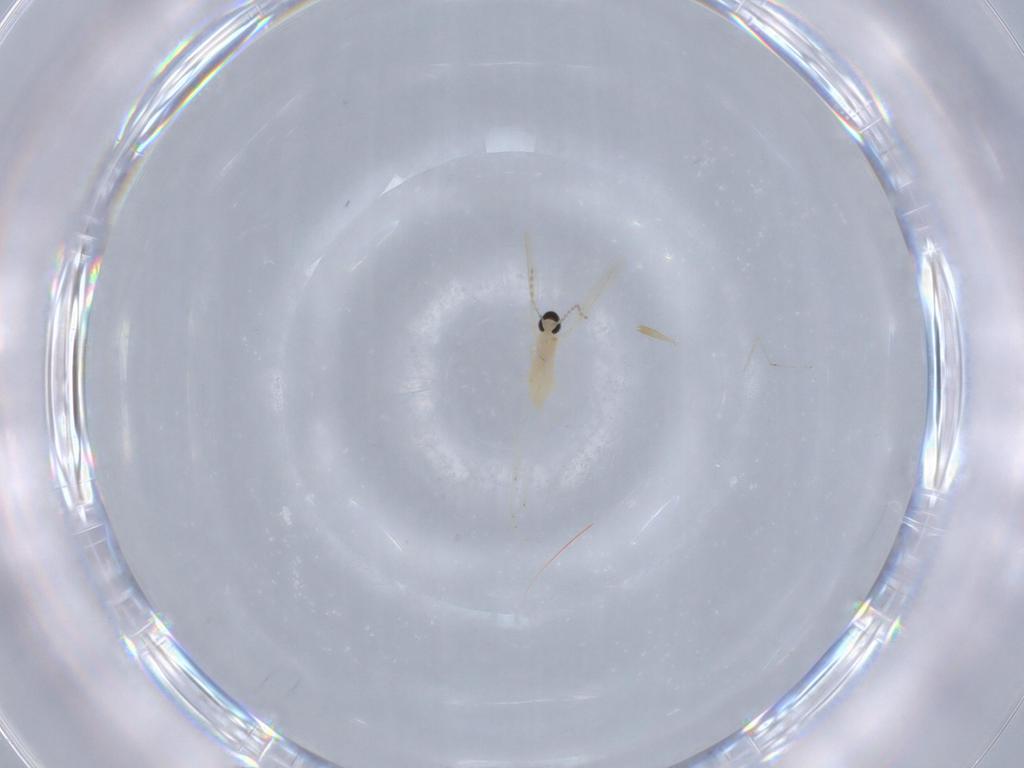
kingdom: Animalia
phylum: Arthropoda
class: Insecta
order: Diptera
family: Cecidomyiidae
